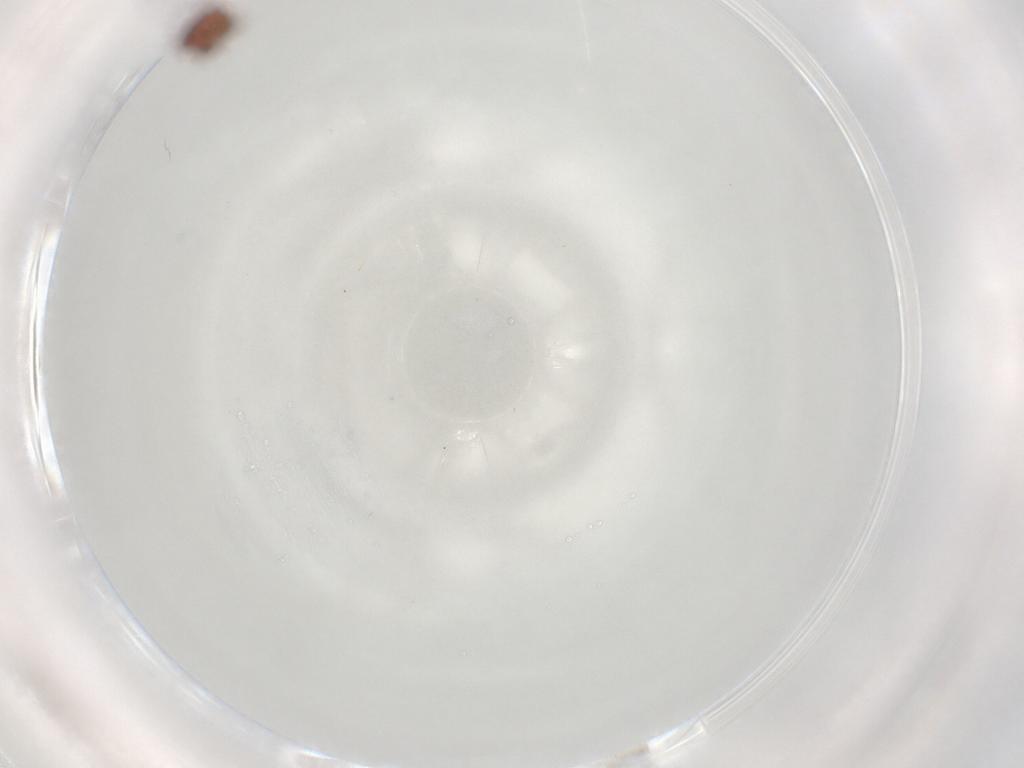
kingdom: Animalia
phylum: Arthropoda
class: Arachnida
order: Sarcoptiformes
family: Eremaeidae
